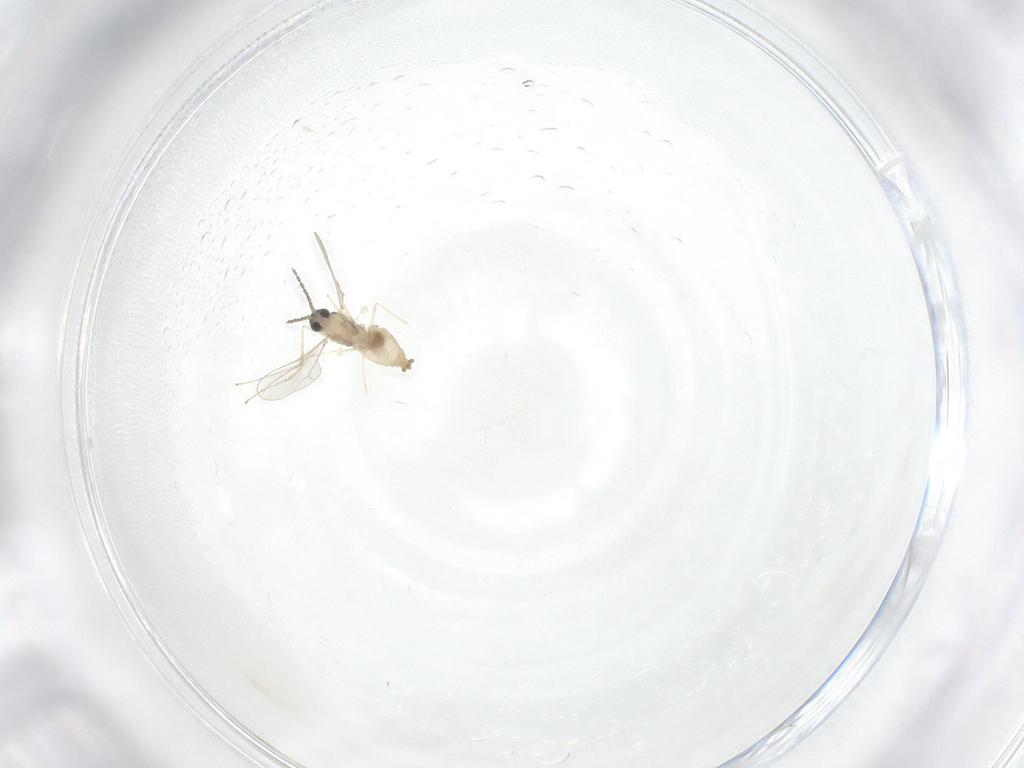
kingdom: Animalia
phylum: Arthropoda
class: Insecta
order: Diptera
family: Cecidomyiidae
